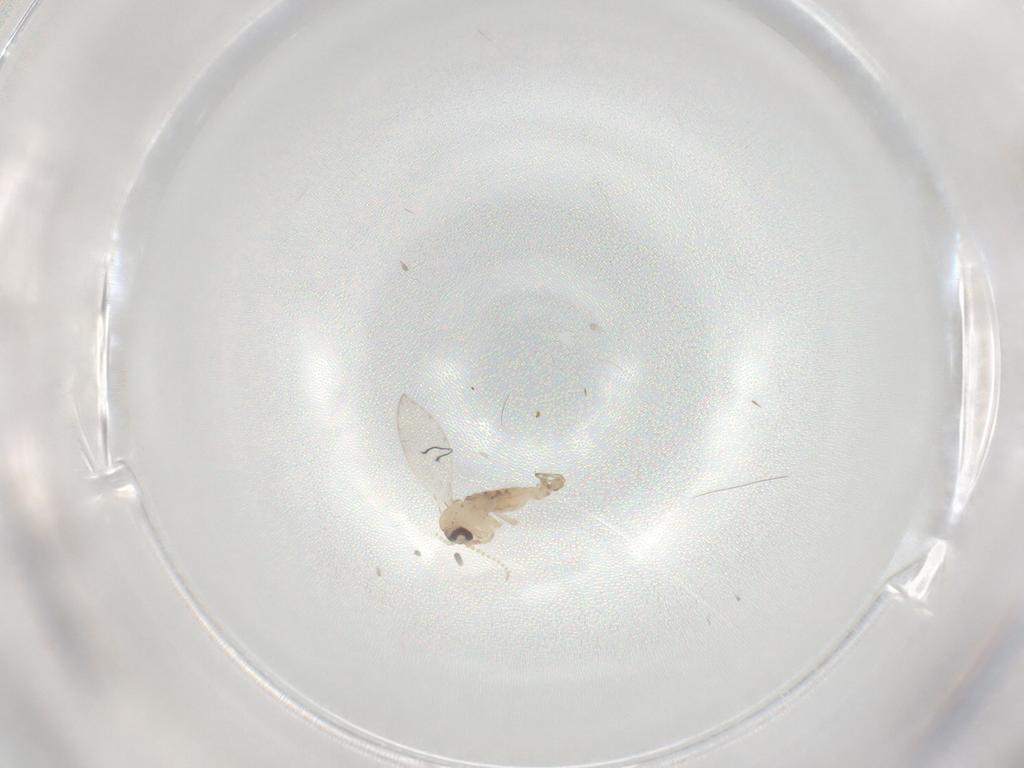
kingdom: Animalia
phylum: Arthropoda
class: Insecta
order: Diptera
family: Psychodidae
